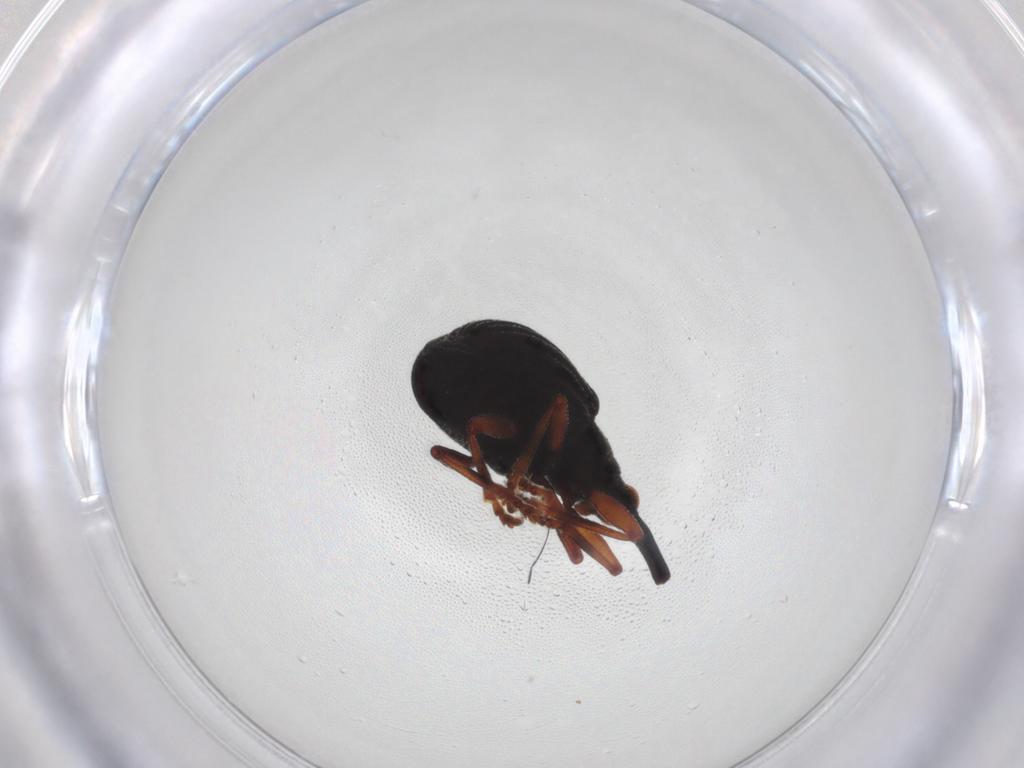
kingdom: Animalia
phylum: Arthropoda
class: Insecta
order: Coleoptera
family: Brentidae
